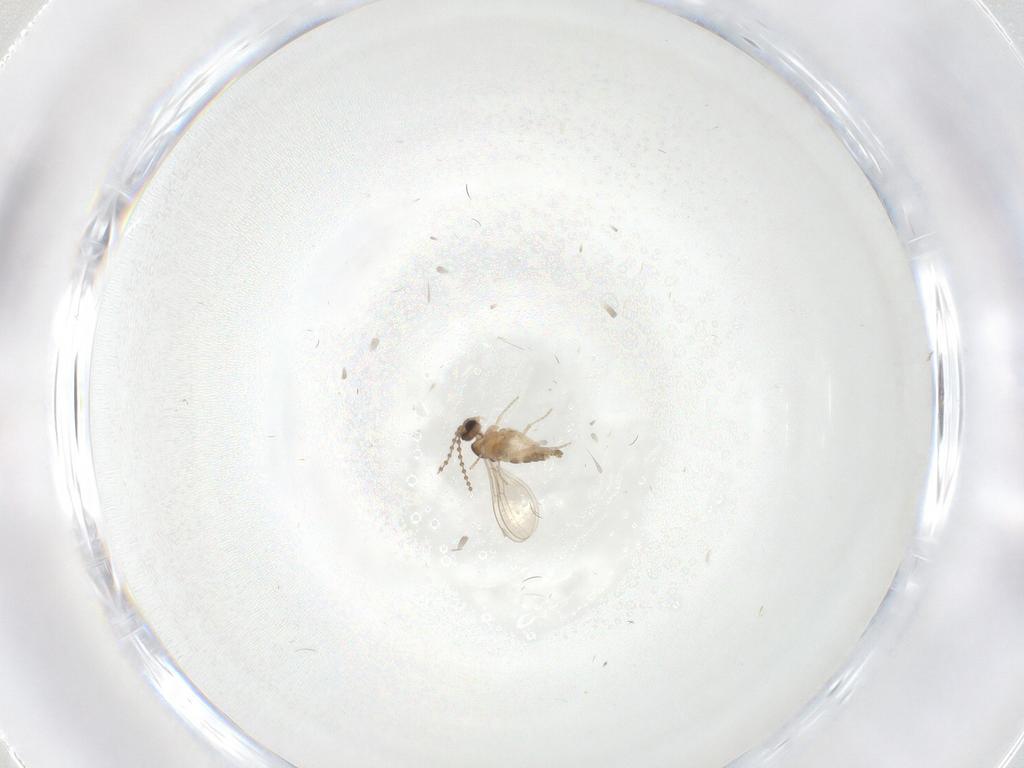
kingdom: Animalia
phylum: Arthropoda
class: Insecta
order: Diptera
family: Cecidomyiidae
